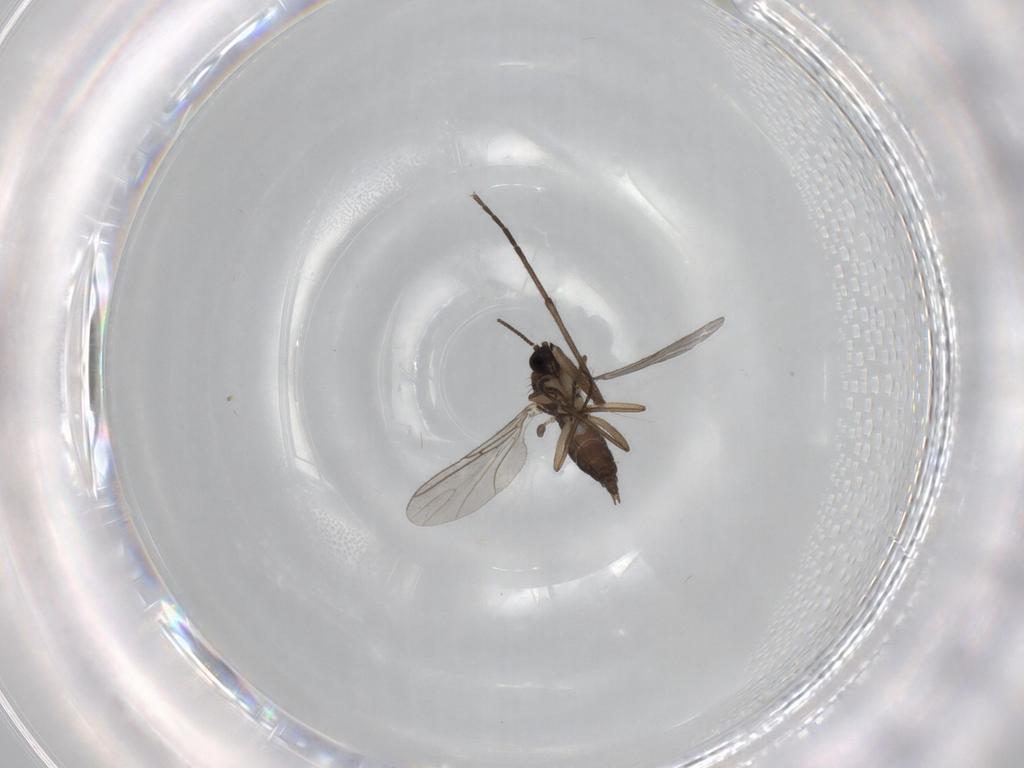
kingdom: Animalia
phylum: Arthropoda
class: Insecta
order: Diptera
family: Sciaridae
